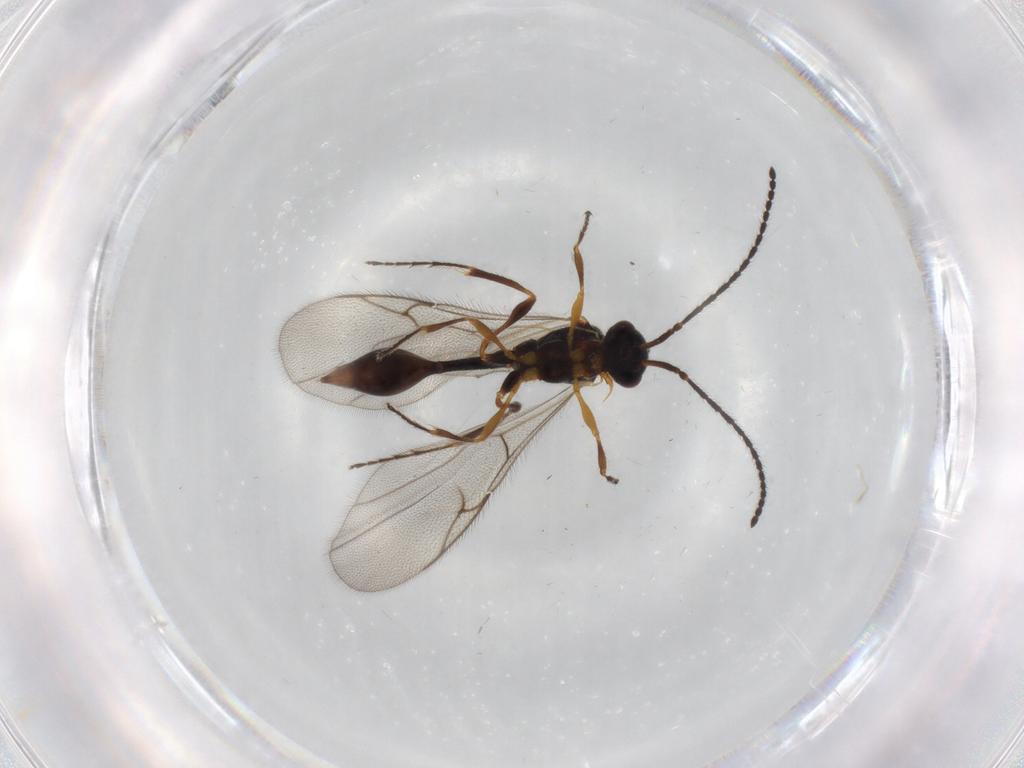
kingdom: Animalia
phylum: Arthropoda
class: Insecta
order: Hymenoptera
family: Diapriidae
